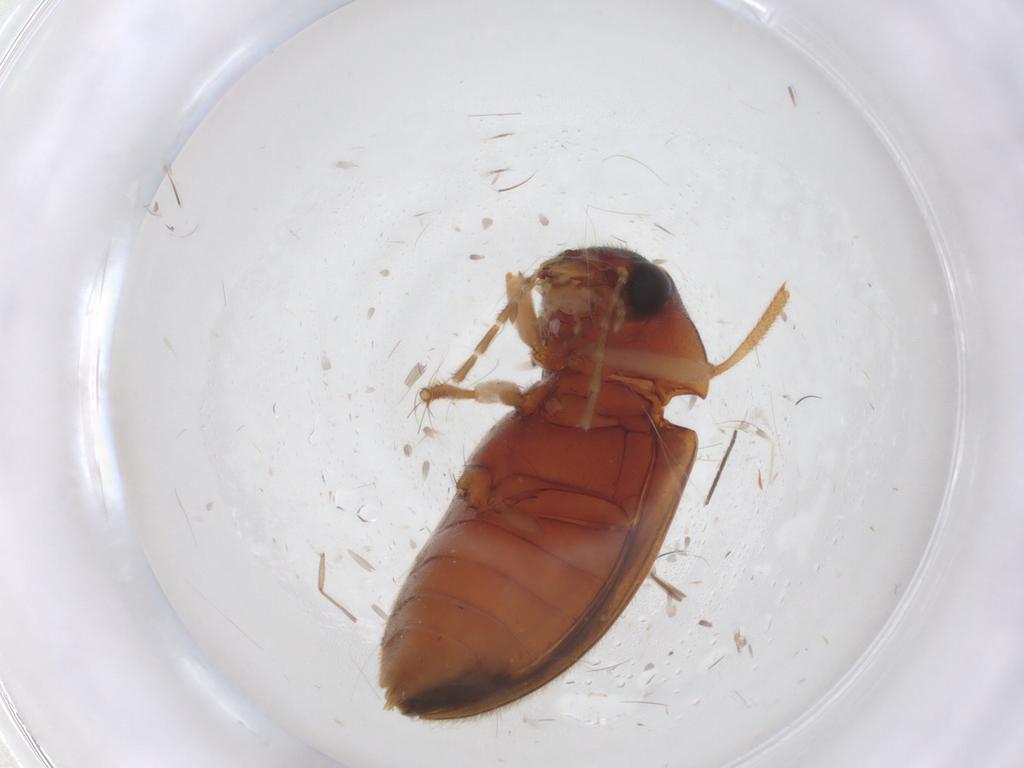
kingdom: Animalia
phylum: Arthropoda
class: Insecta
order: Coleoptera
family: Ptilodactylidae
